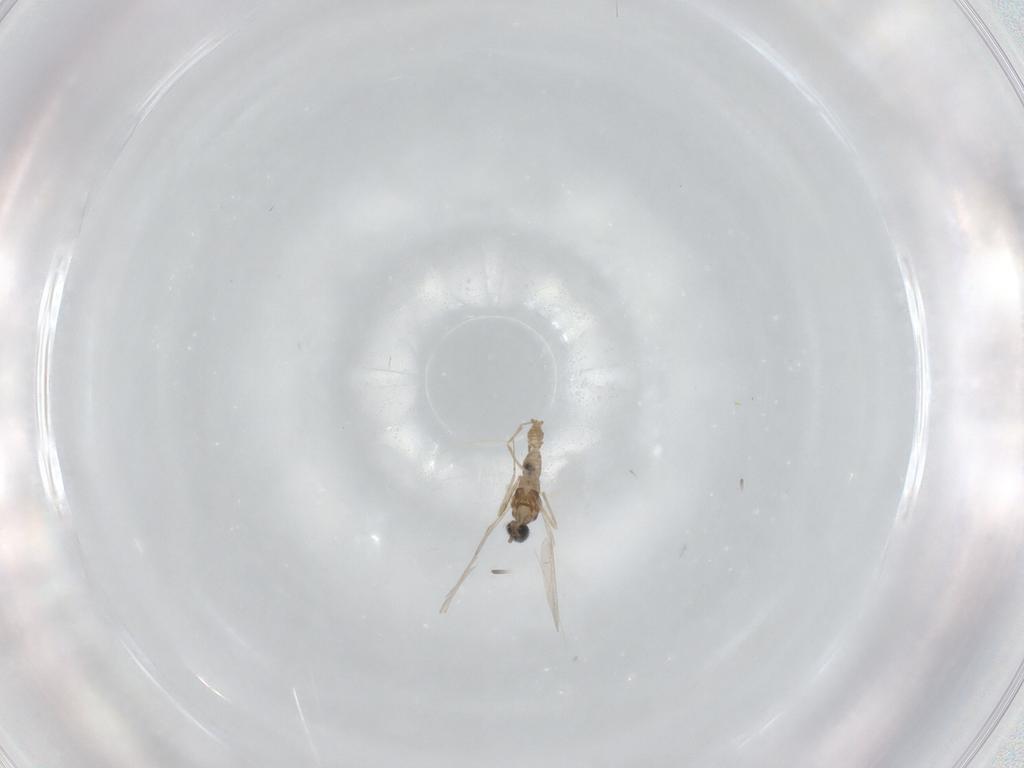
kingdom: Animalia
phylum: Arthropoda
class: Insecta
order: Diptera
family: Cecidomyiidae
